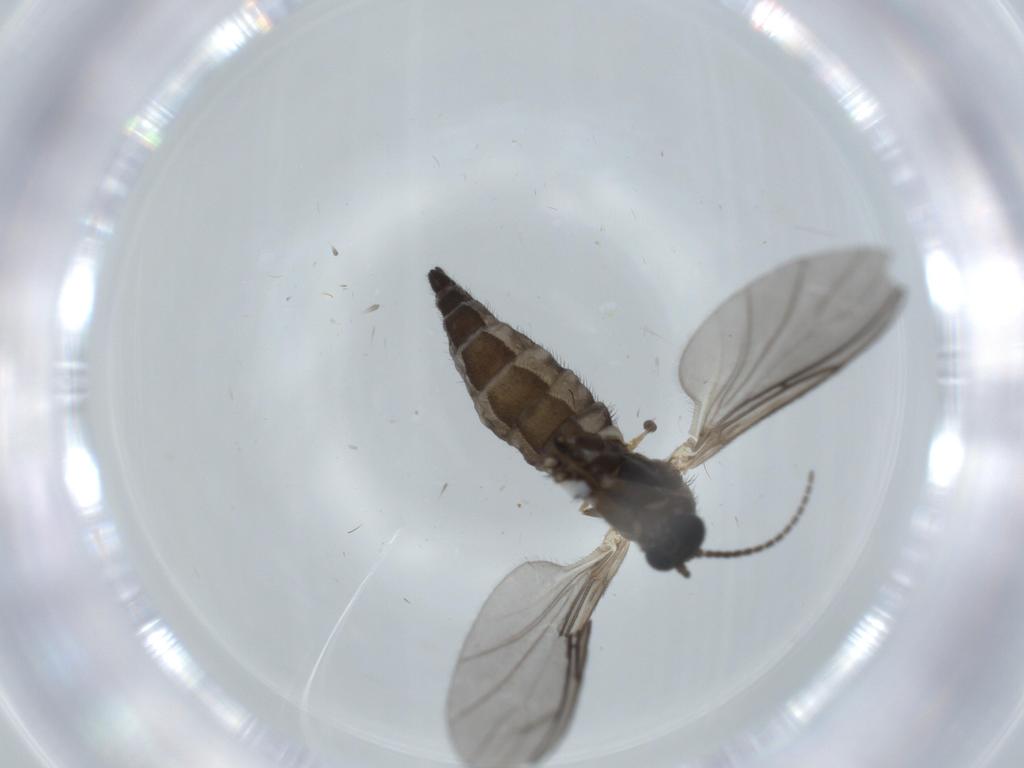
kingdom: Animalia
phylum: Arthropoda
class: Insecta
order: Diptera
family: Sciaridae
